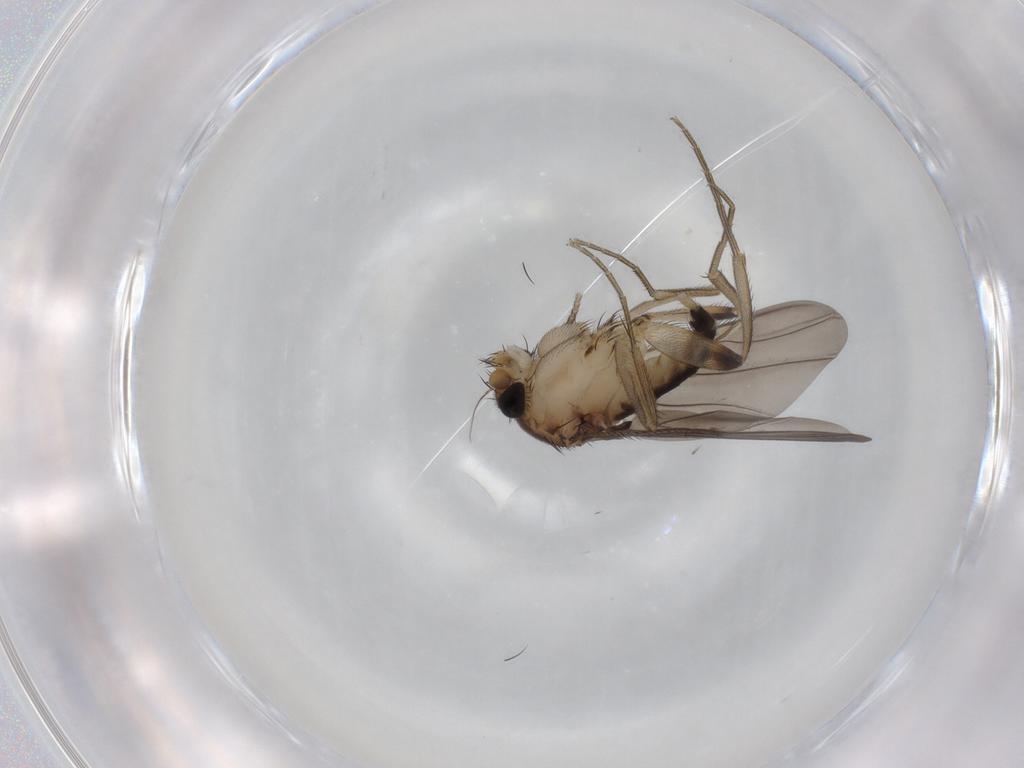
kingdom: Animalia
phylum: Arthropoda
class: Insecta
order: Diptera
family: Phoridae
